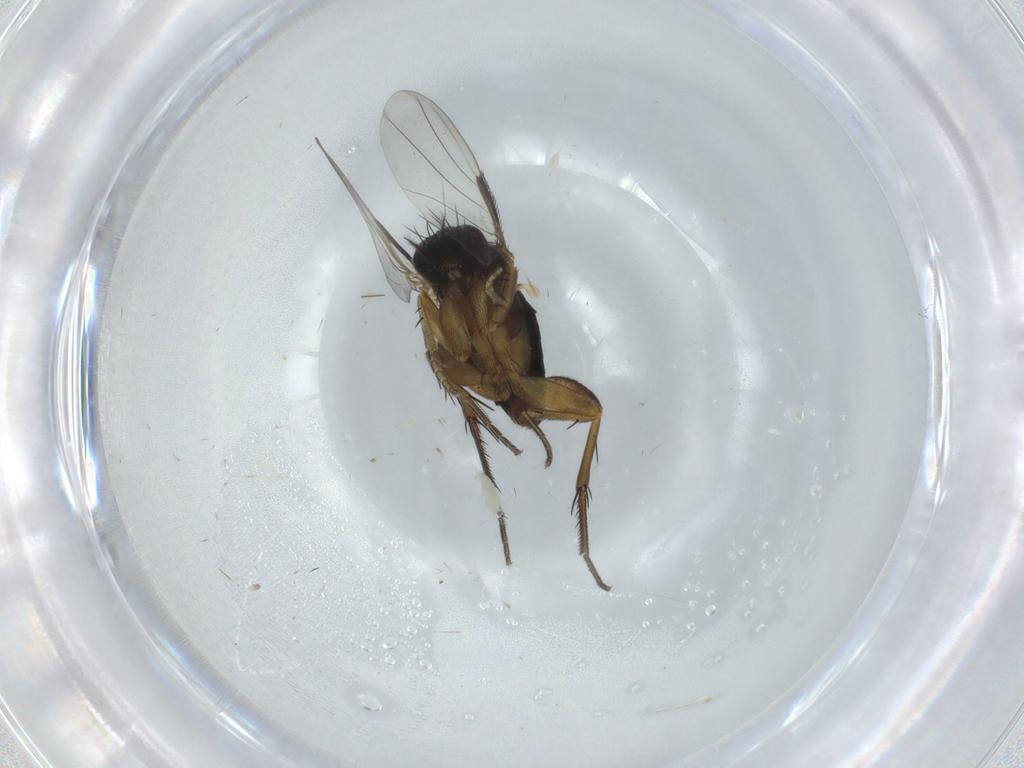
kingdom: Animalia
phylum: Arthropoda
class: Insecta
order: Diptera
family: Phoridae
